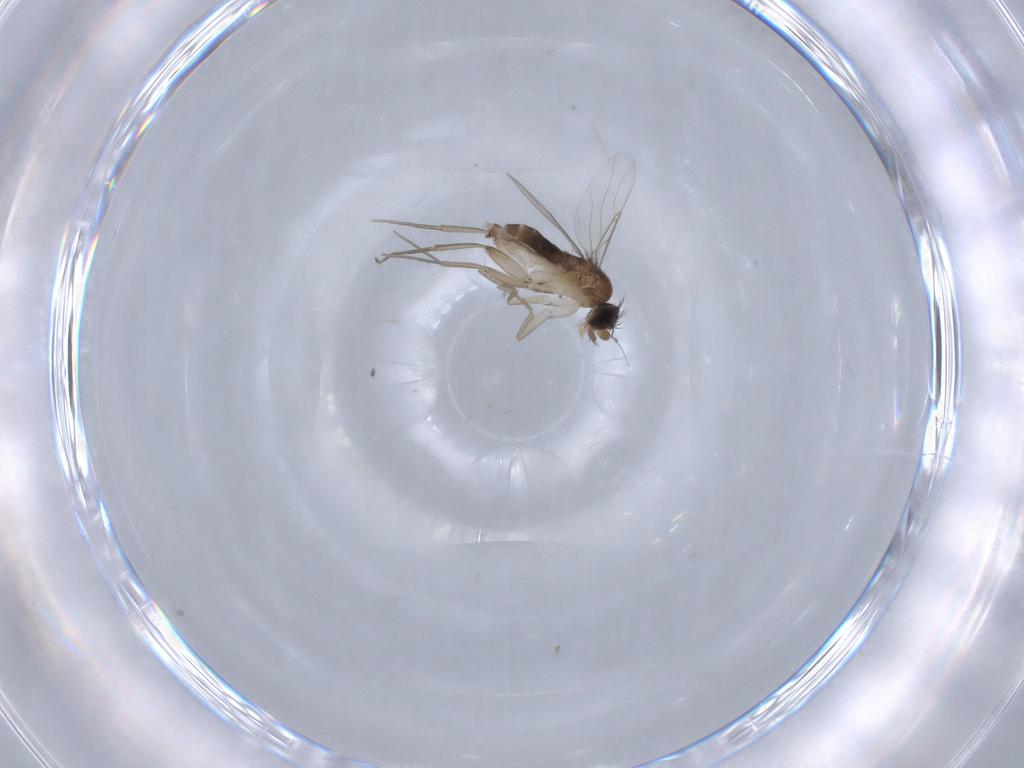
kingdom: Animalia
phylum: Arthropoda
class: Insecta
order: Diptera
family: Phoridae
